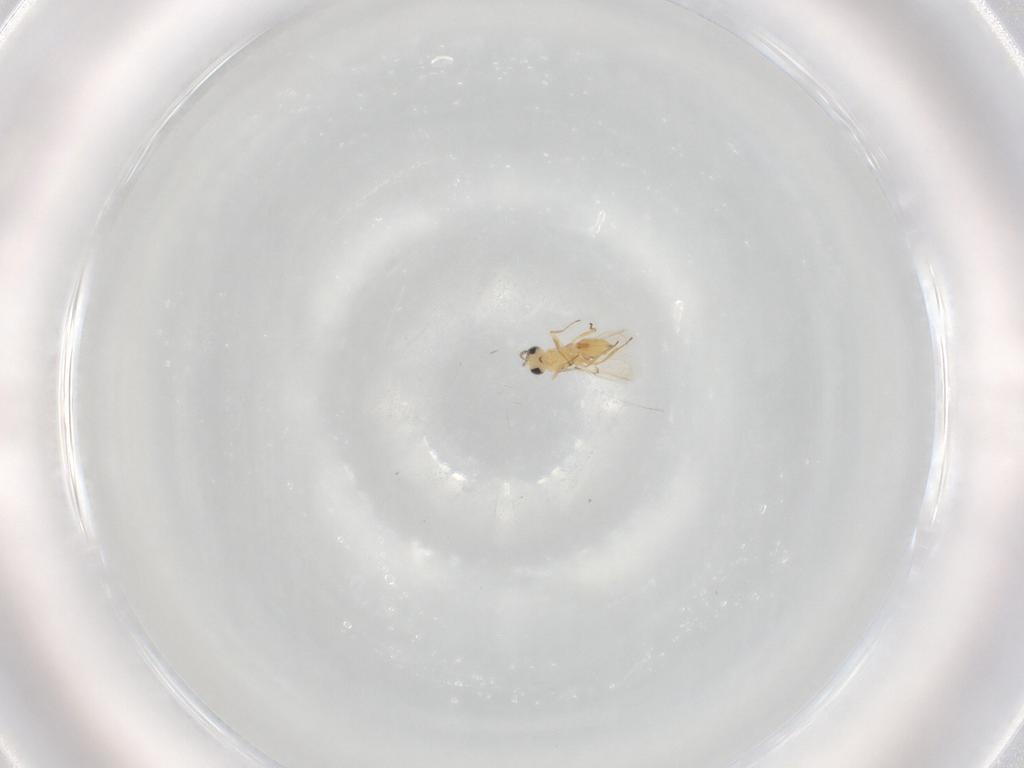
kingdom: Animalia
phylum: Arthropoda
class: Insecta
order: Hymenoptera
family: Trichogrammatidae
